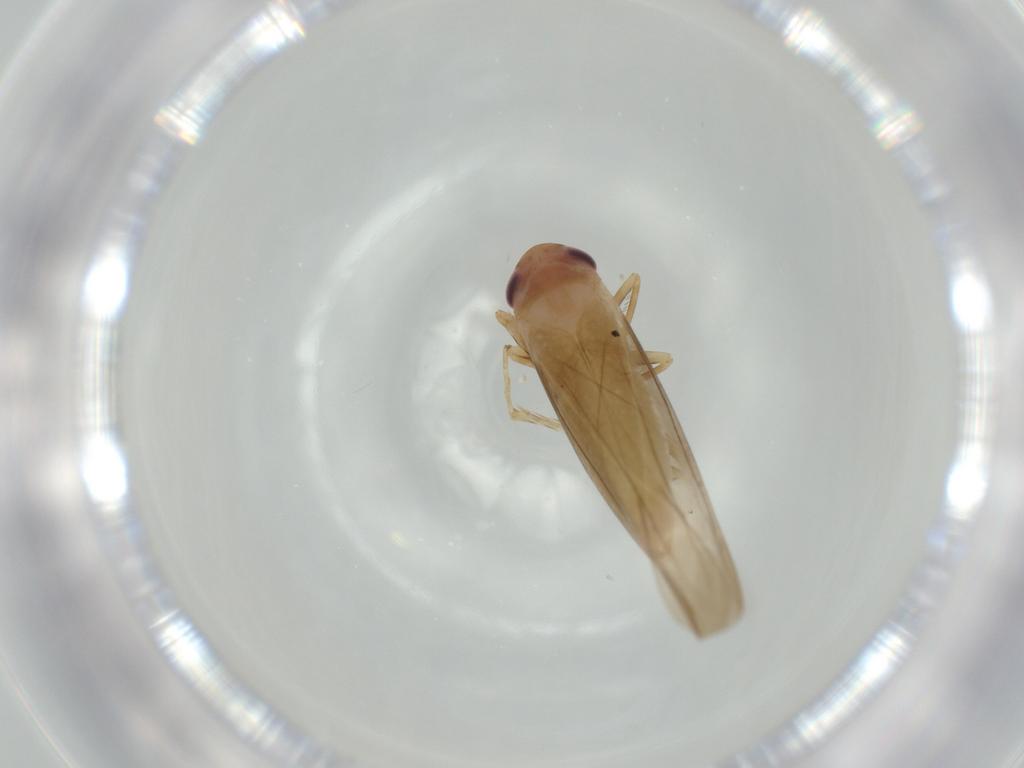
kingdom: Animalia
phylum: Arthropoda
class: Insecta
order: Hemiptera
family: Cicadellidae
